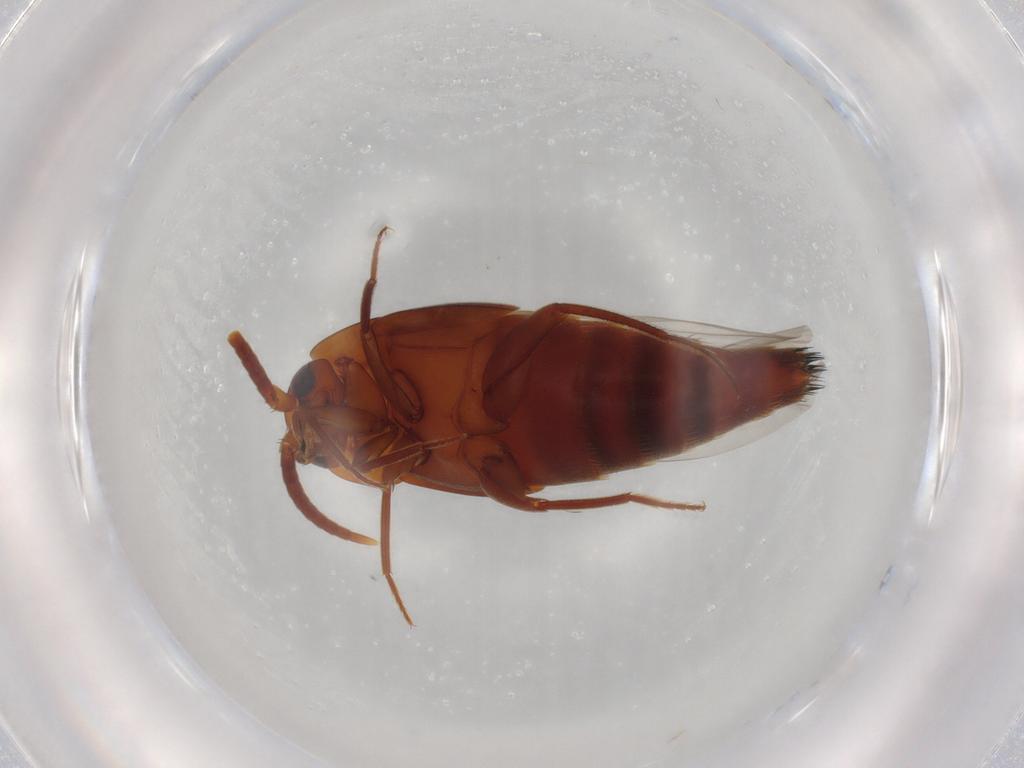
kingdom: Animalia
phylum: Arthropoda
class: Insecta
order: Coleoptera
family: Staphylinidae
